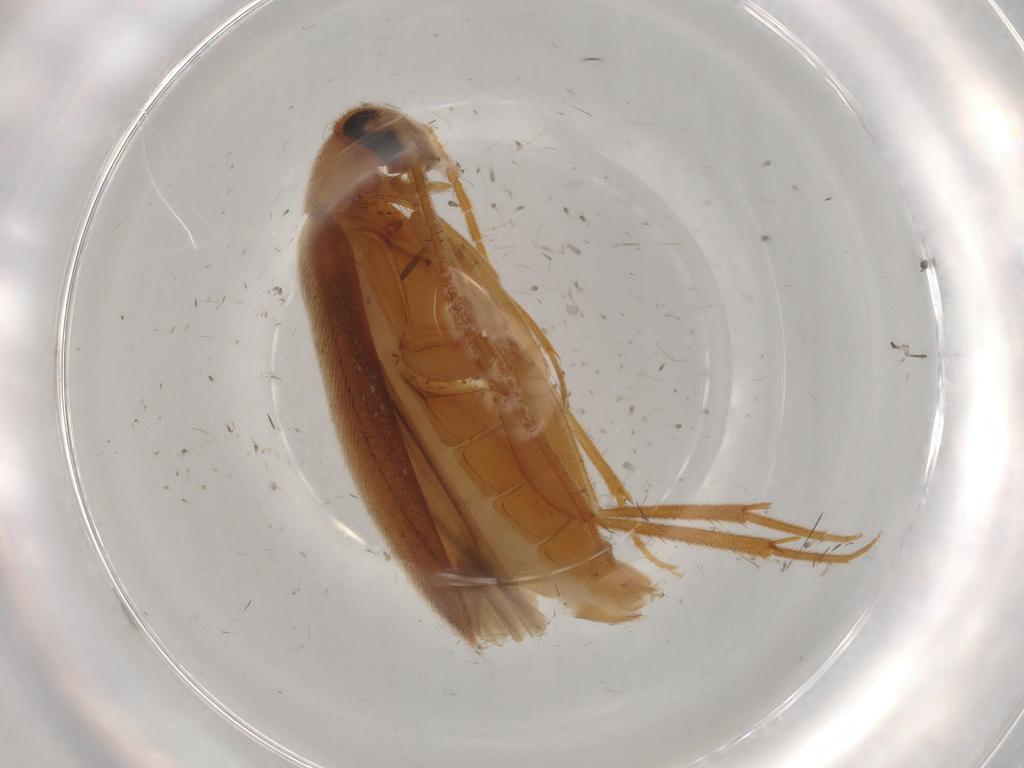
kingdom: Animalia
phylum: Arthropoda
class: Insecta
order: Coleoptera
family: Scraptiidae
